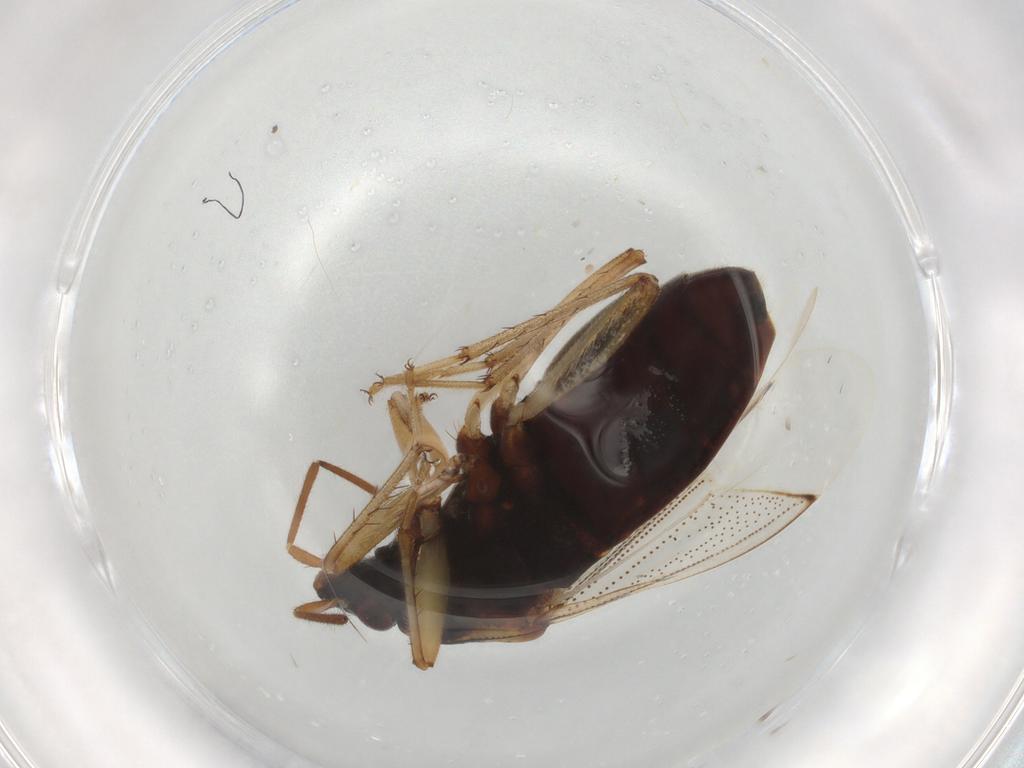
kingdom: Animalia
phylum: Arthropoda
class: Insecta
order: Hemiptera
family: Rhyparochromidae
